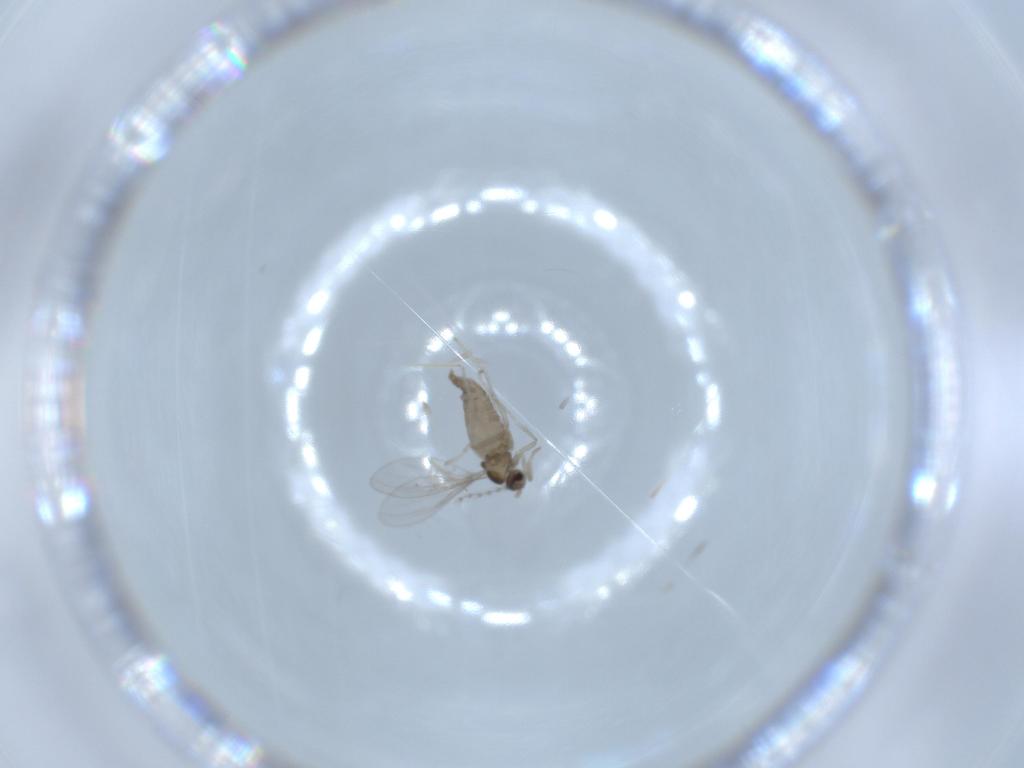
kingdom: Animalia
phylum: Arthropoda
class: Insecta
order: Diptera
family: Cecidomyiidae
